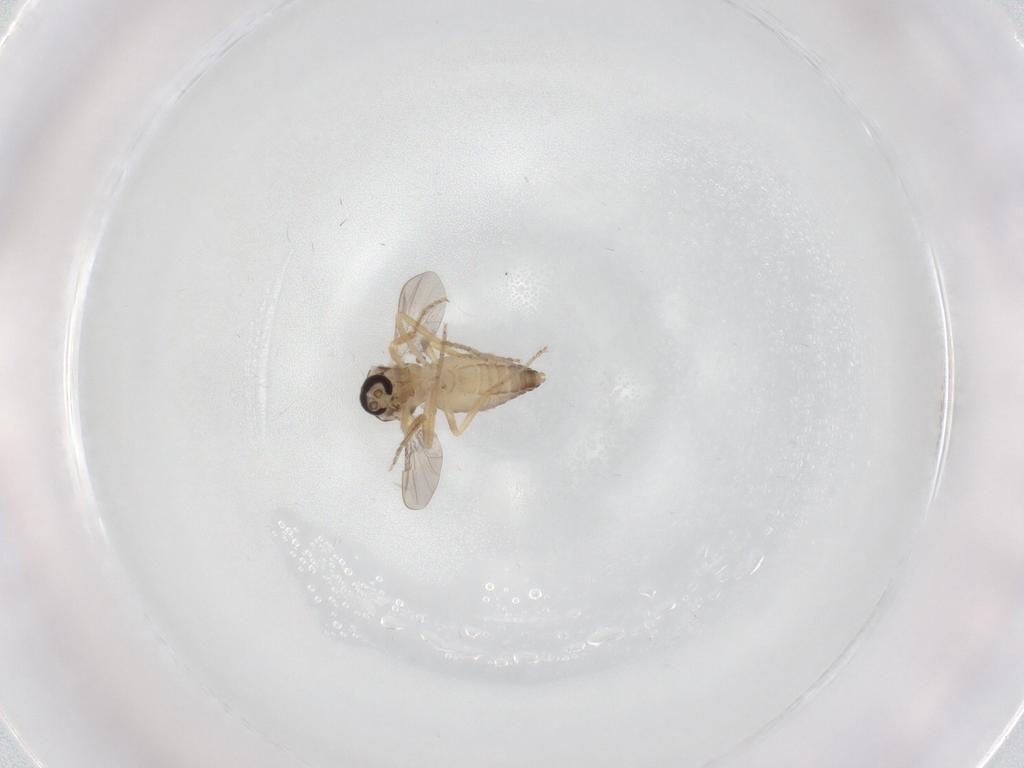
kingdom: Animalia
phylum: Arthropoda
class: Insecta
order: Diptera
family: Ceratopogonidae
